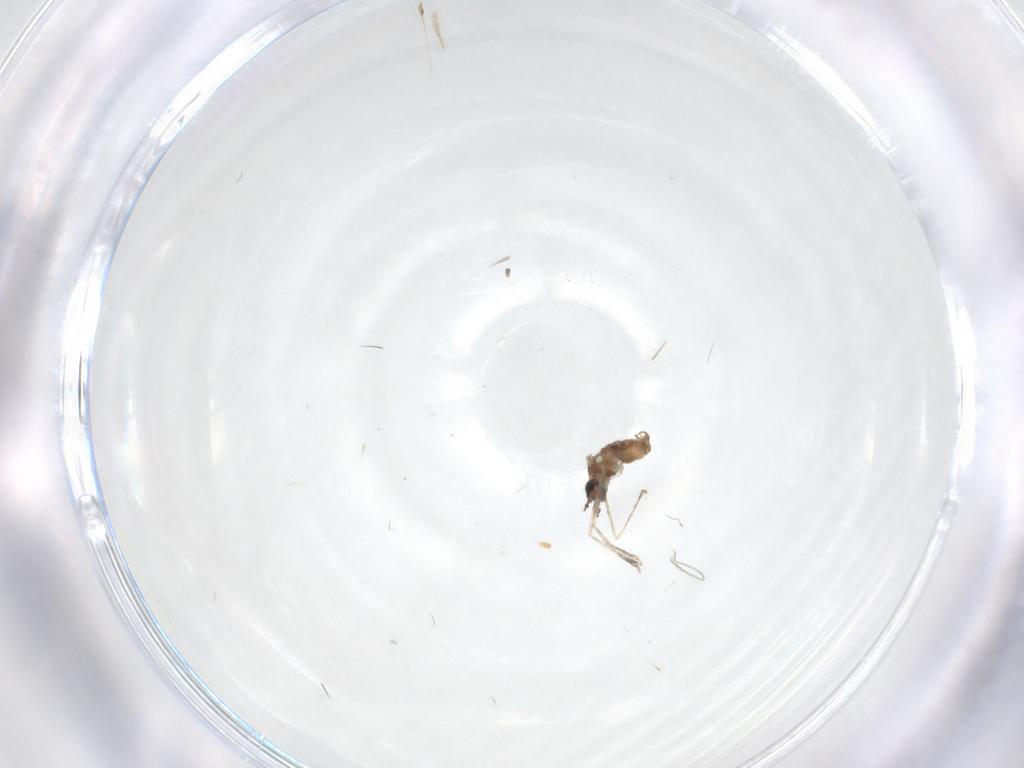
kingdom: Animalia
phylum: Arthropoda
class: Insecta
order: Diptera
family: Cecidomyiidae
